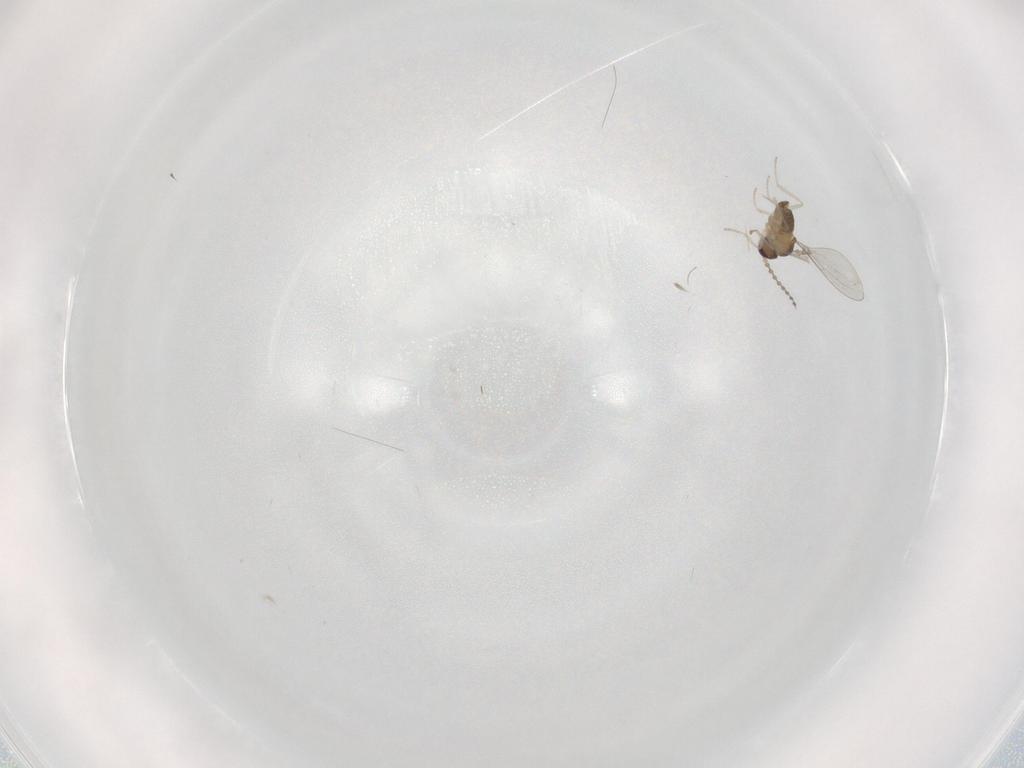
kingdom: Animalia
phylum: Arthropoda
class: Insecta
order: Diptera
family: Cecidomyiidae
